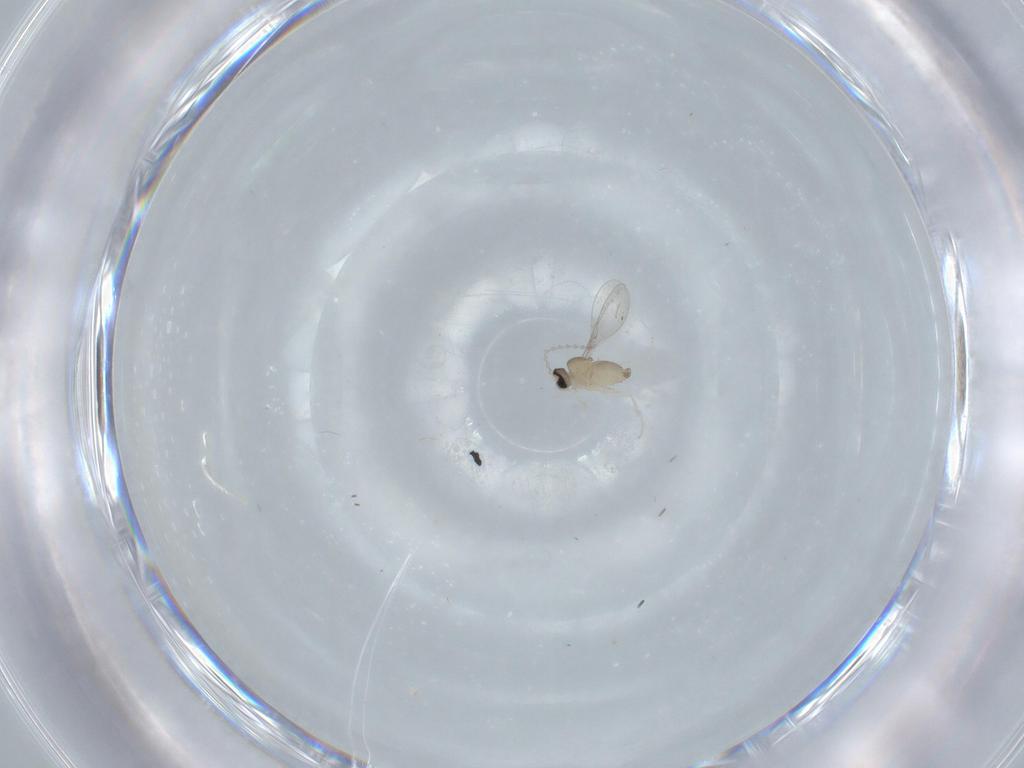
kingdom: Animalia
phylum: Arthropoda
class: Insecta
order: Diptera
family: Cecidomyiidae
